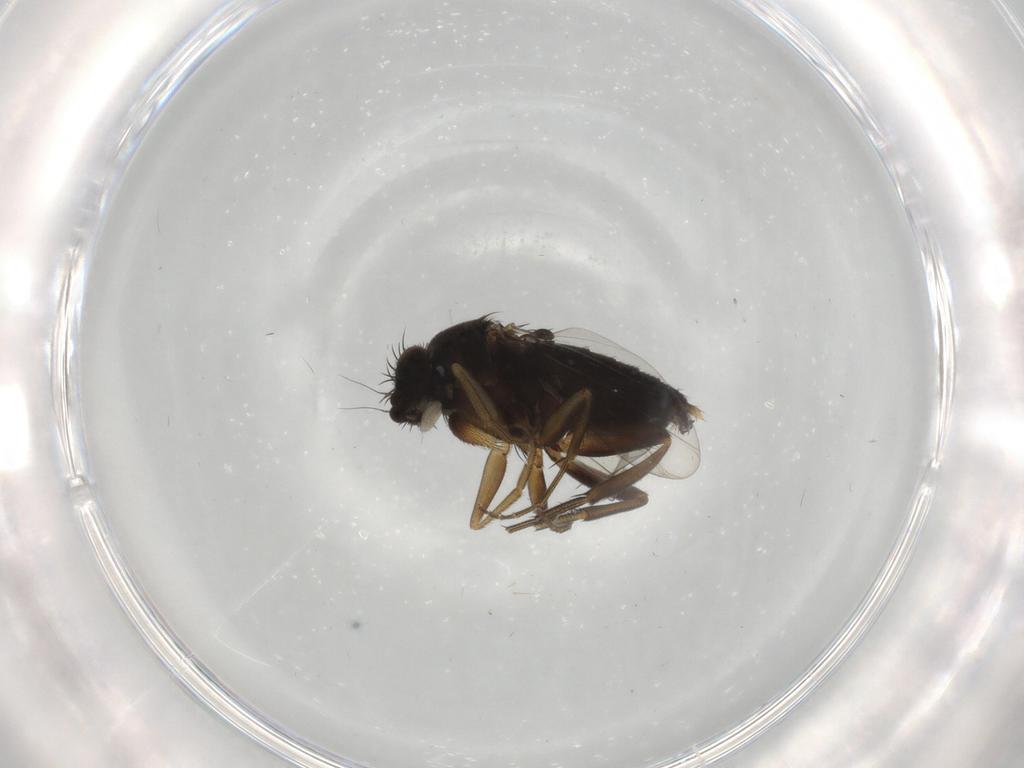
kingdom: Animalia
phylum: Arthropoda
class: Insecta
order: Diptera
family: Phoridae
